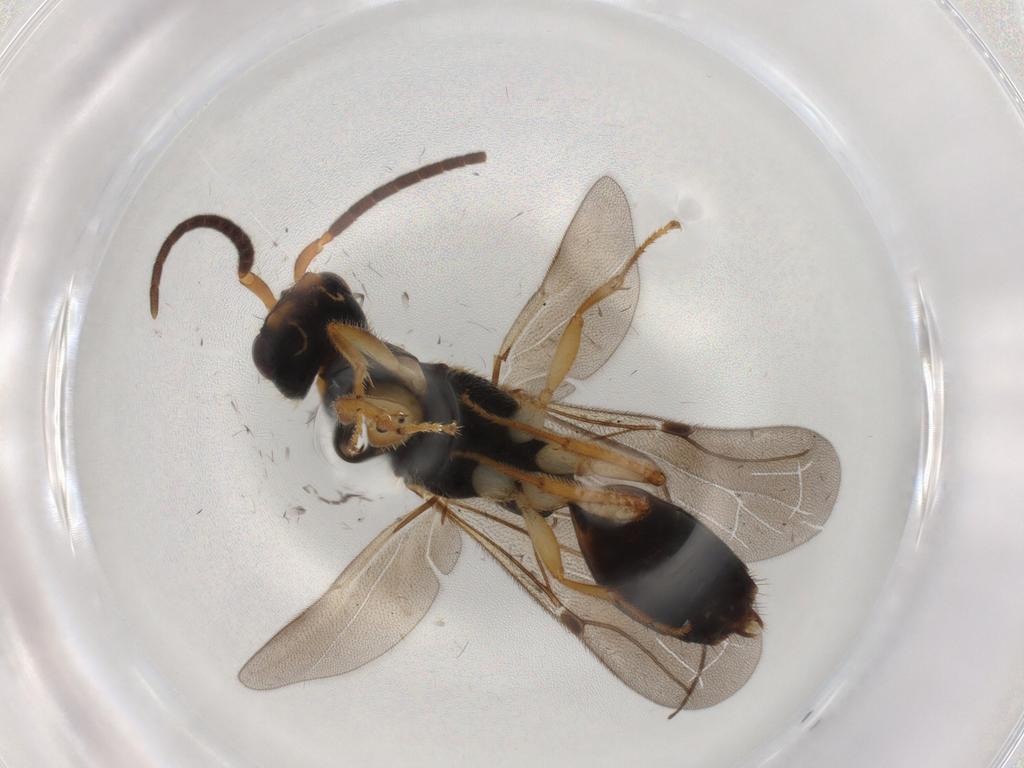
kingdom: Animalia
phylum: Arthropoda
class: Insecta
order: Hymenoptera
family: Bethylidae
